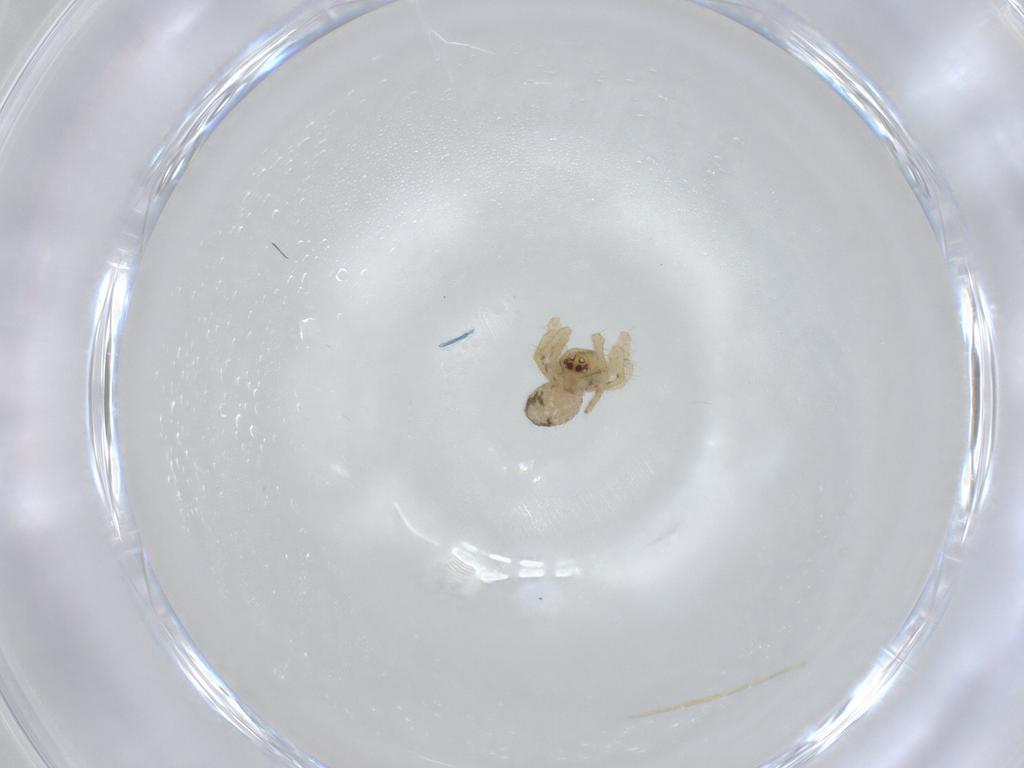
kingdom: Animalia
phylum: Arthropoda
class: Arachnida
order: Araneae
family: Theridiidae
